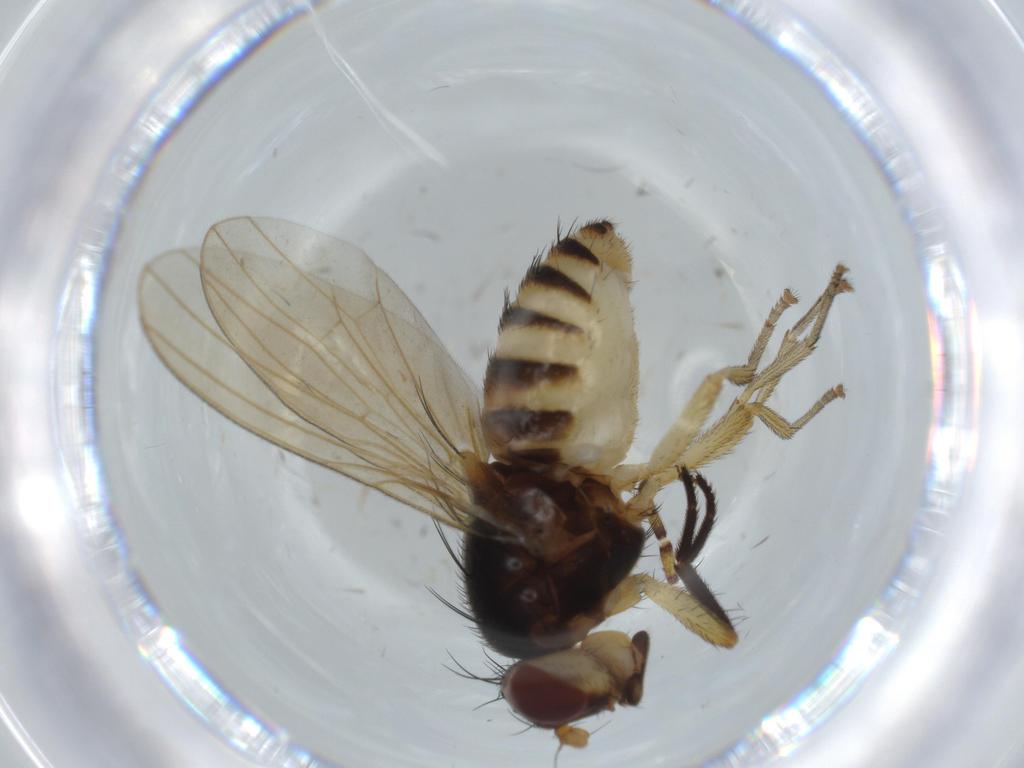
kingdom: Animalia
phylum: Arthropoda
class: Insecta
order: Diptera
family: Lauxaniidae
